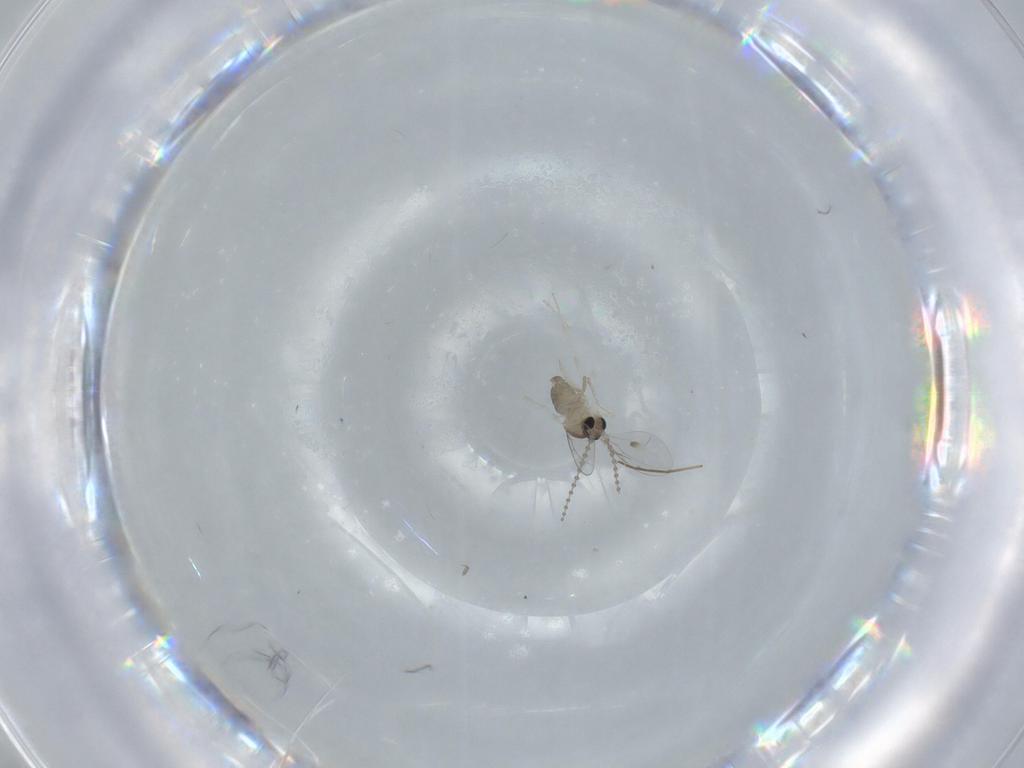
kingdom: Animalia
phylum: Arthropoda
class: Insecta
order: Diptera
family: Cecidomyiidae
